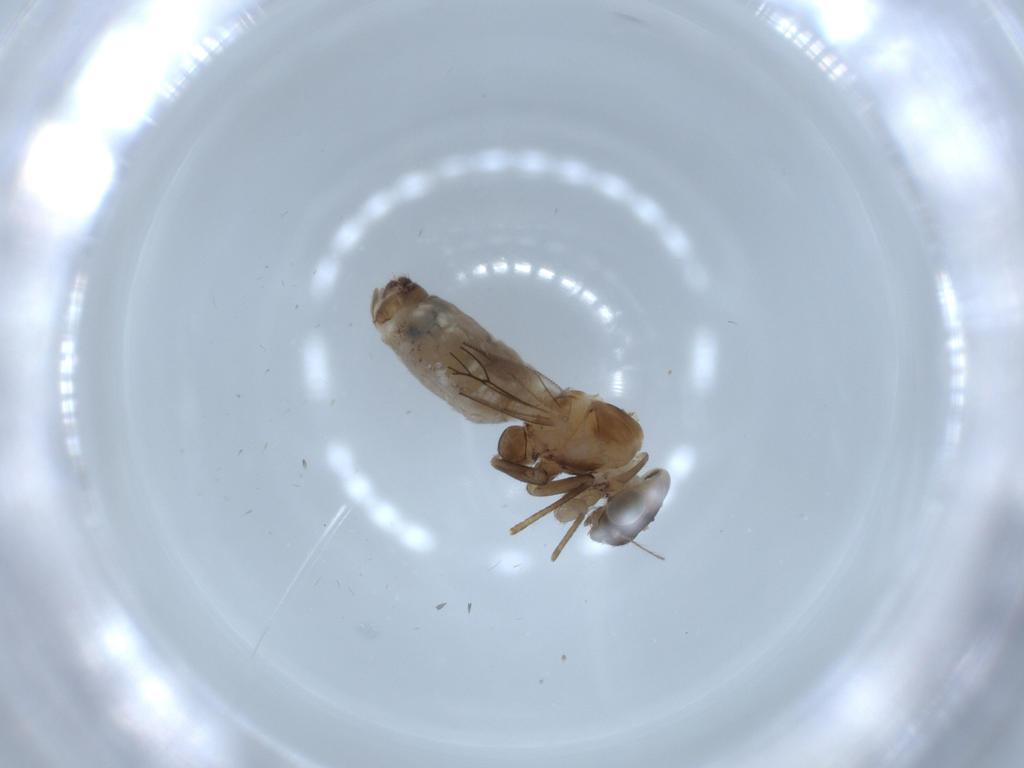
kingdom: Animalia
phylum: Arthropoda
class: Insecta
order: Psocodea
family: Lepidopsocidae
